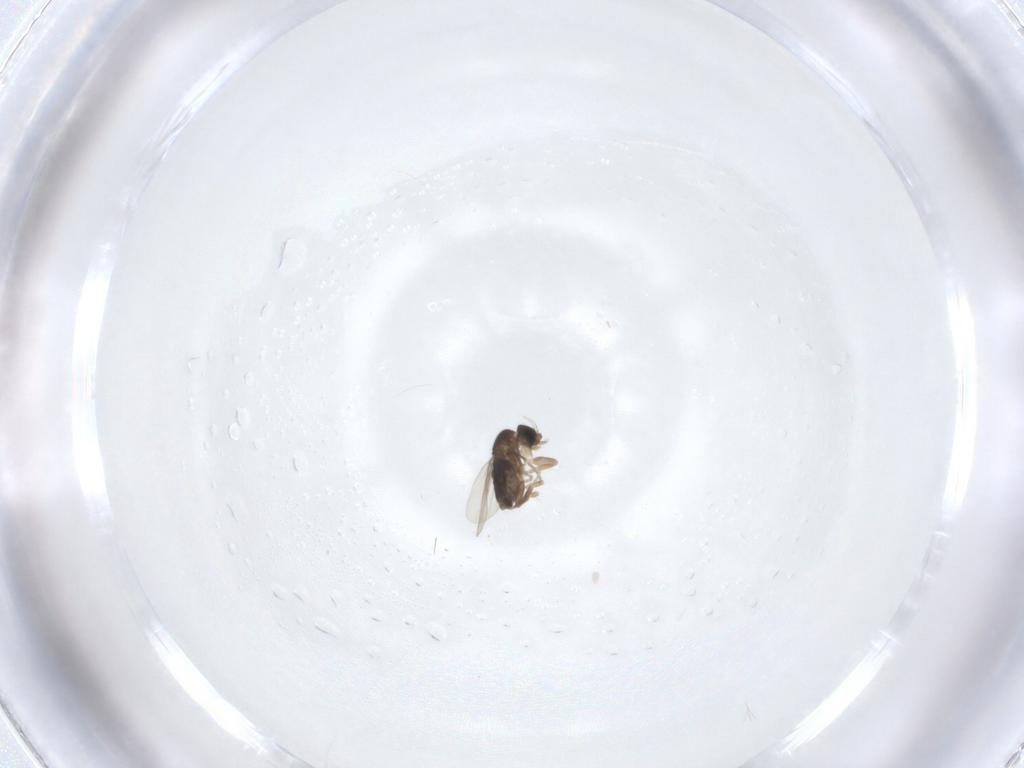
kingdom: Animalia
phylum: Arthropoda
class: Insecta
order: Diptera
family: Phoridae
